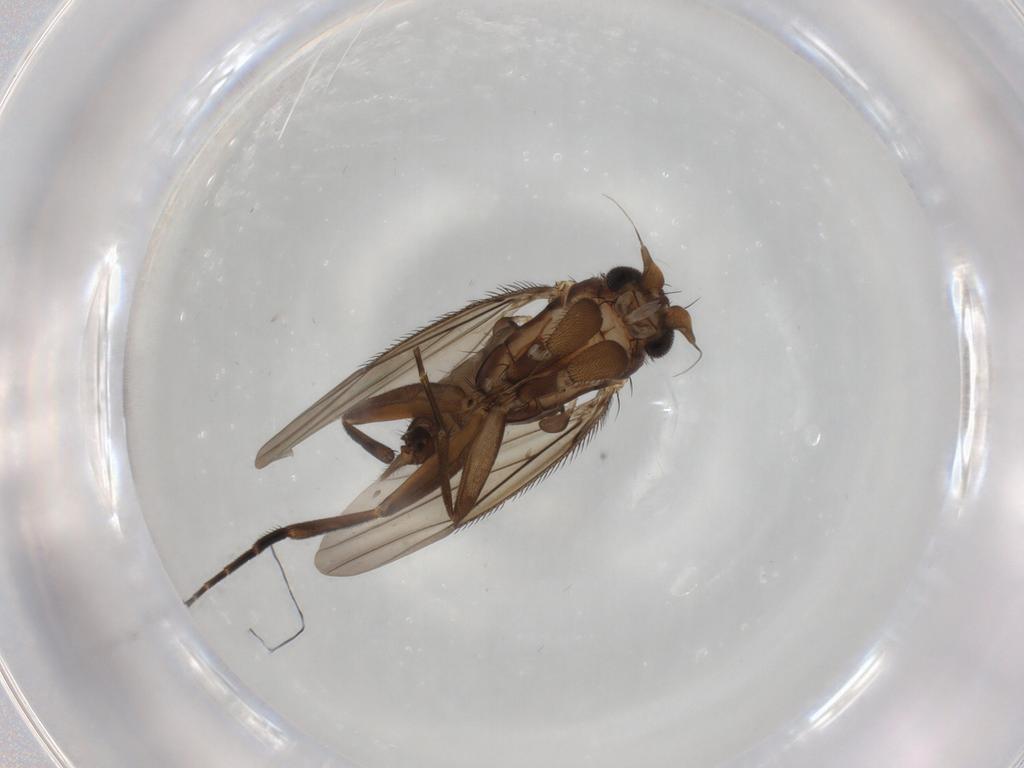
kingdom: Animalia
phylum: Arthropoda
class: Insecta
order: Diptera
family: Phoridae
